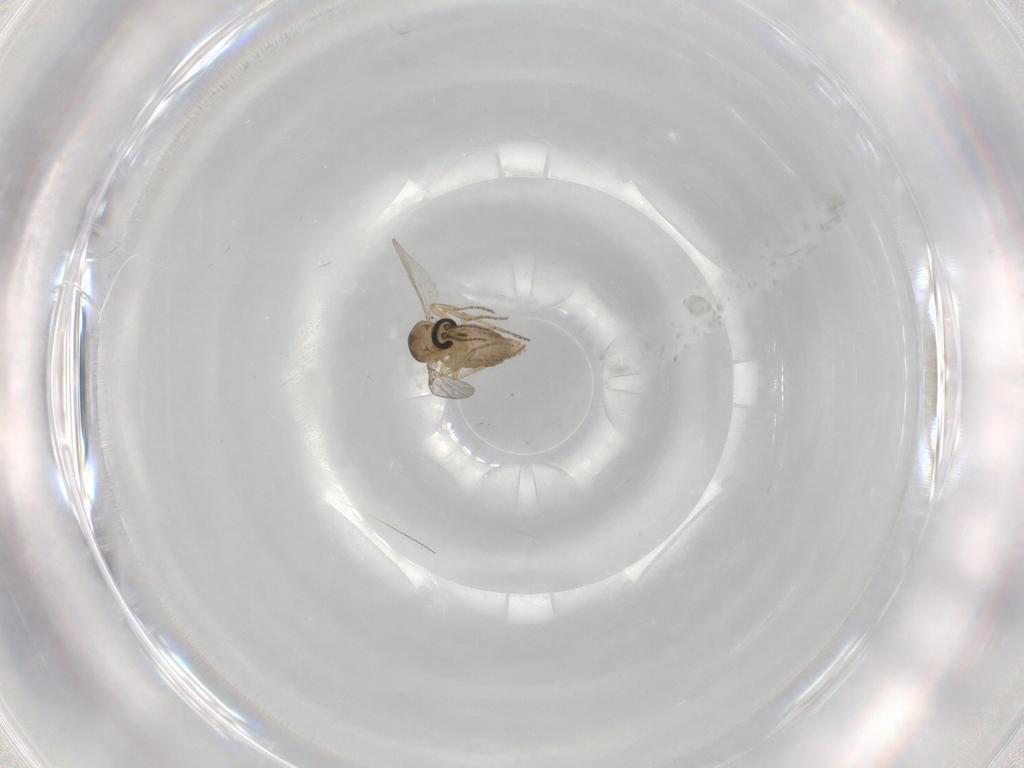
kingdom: Animalia
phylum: Arthropoda
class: Insecta
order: Diptera
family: Ceratopogonidae
